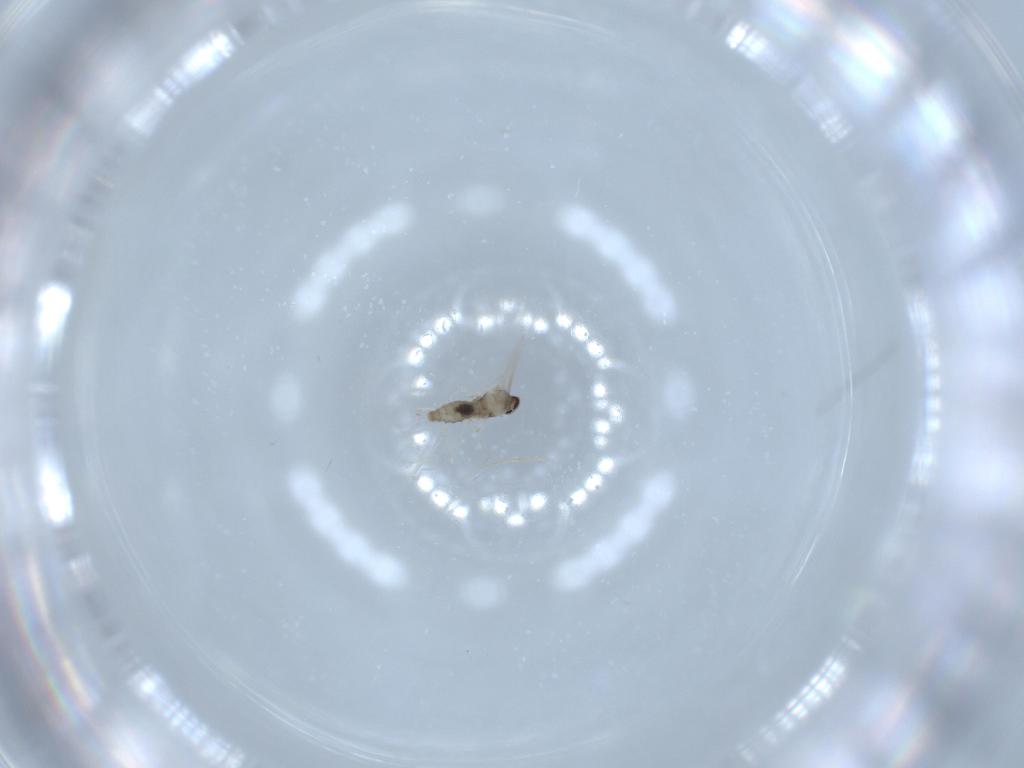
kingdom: Animalia
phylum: Arthropoda
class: Insecta
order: Diptera
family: Cecidomyiidae
